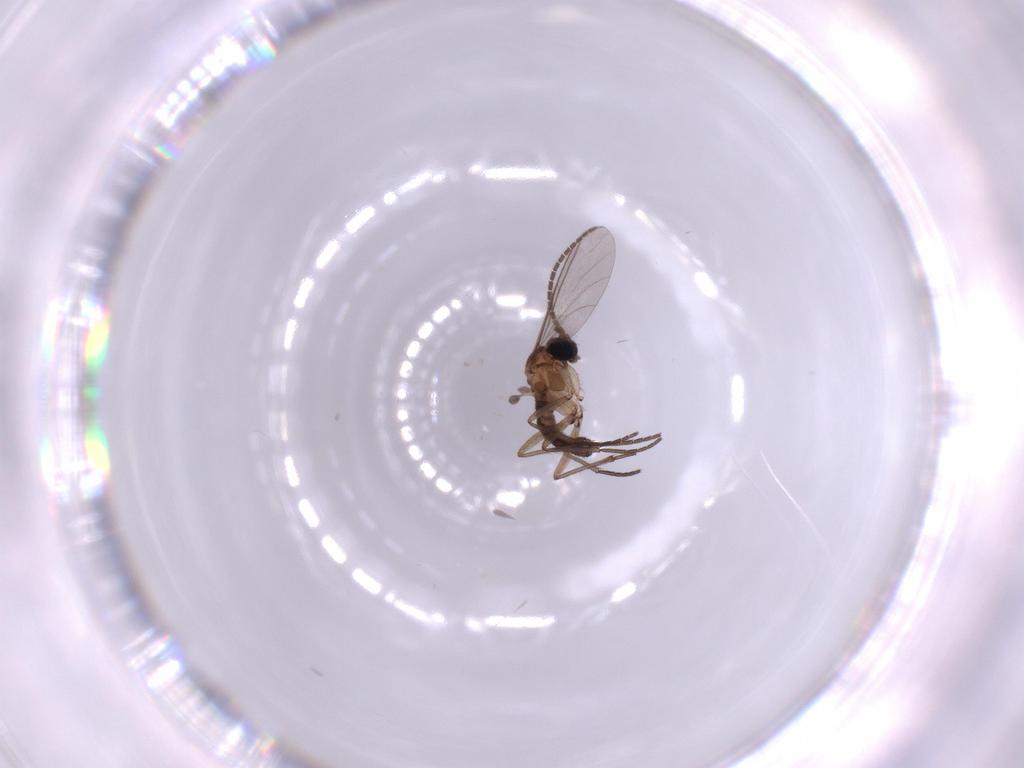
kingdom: Animalia
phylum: Arthropoda
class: Insecta
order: Diptera
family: Sciaridae
